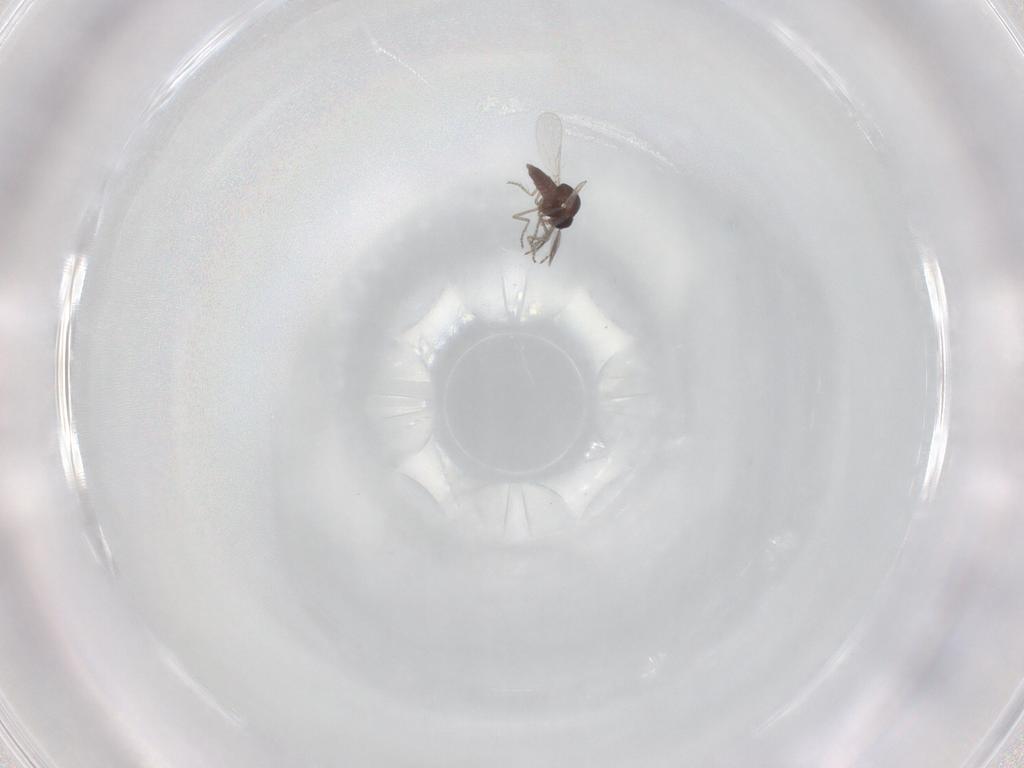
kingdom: Animalia
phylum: Arthropoda
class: Insecta
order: Diptera
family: Ceratopogonidae
